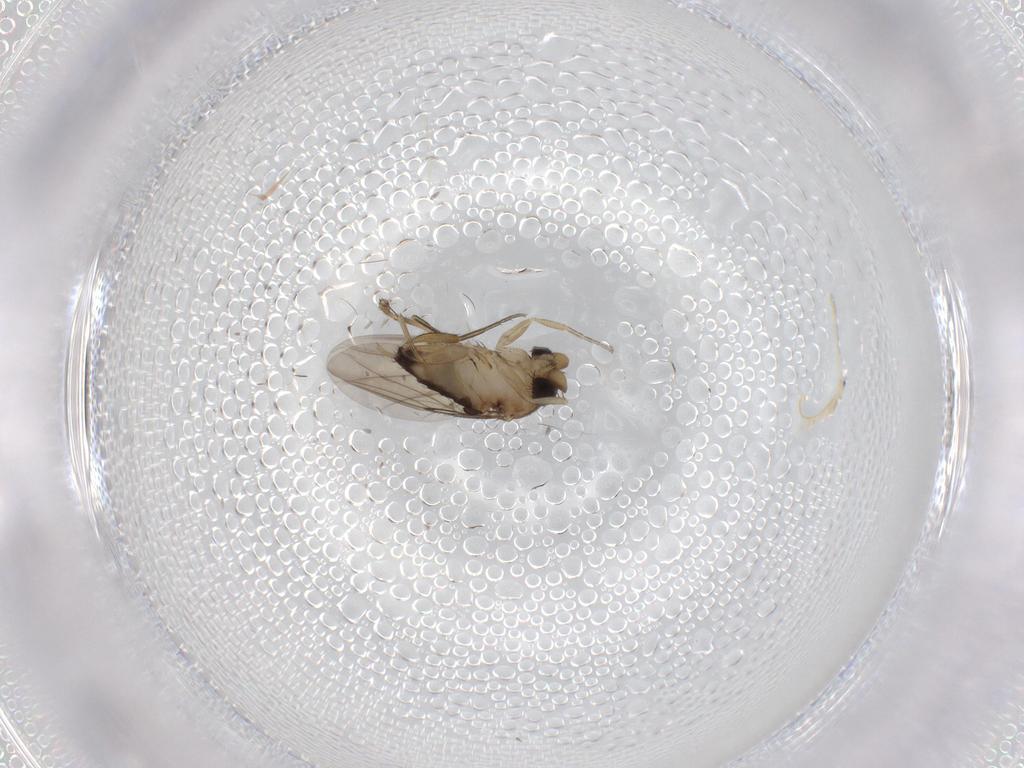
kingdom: Animalia
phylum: Arthropoda
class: Insecta
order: Diptera
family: Phoridae
